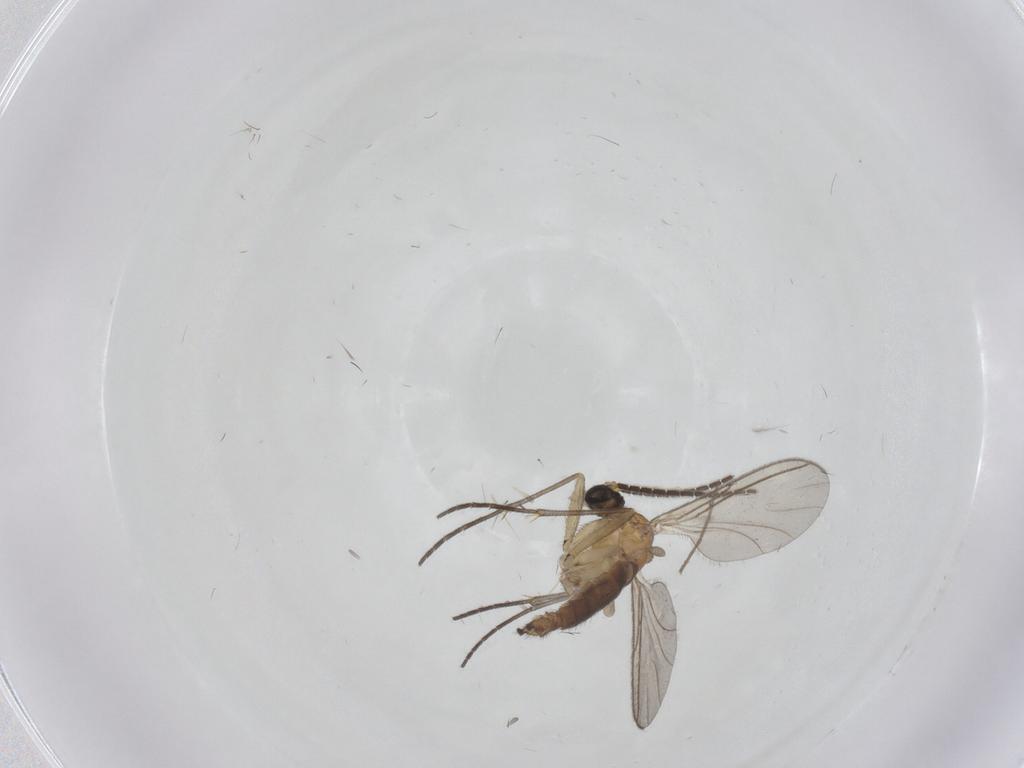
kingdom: Animalia
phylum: Arthropoda
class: Insecta
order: Diptera
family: Sciaridae
